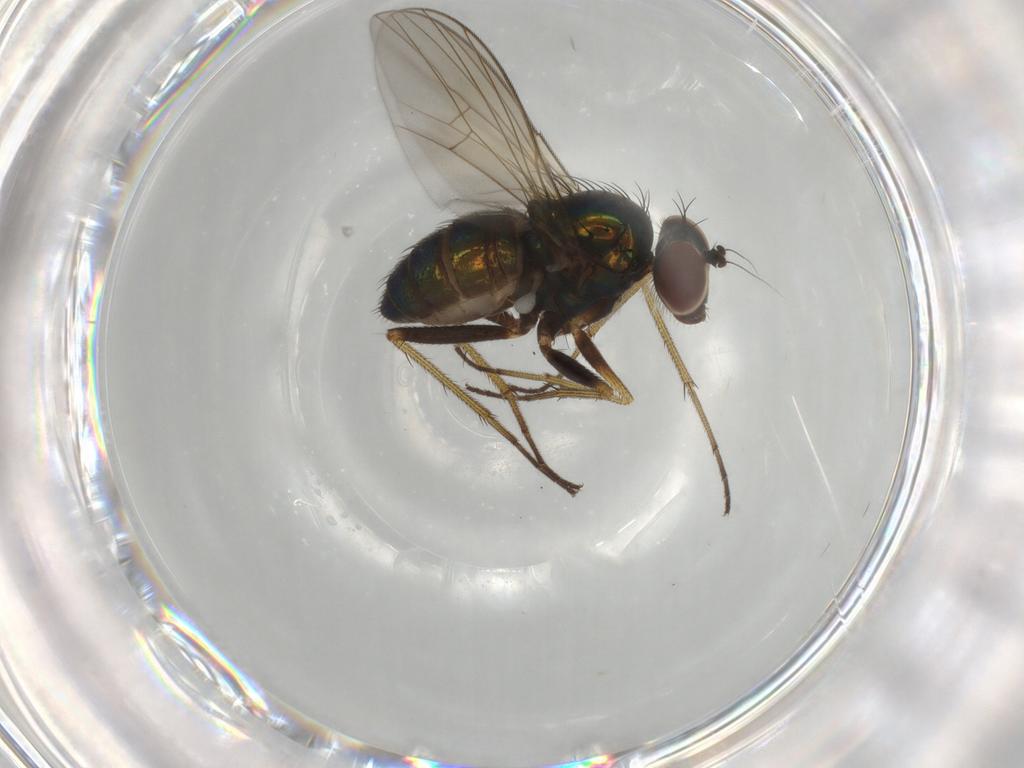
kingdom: Animalia
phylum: Arthropoda
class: Insecta
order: Diptera
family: Dolichopodidae
